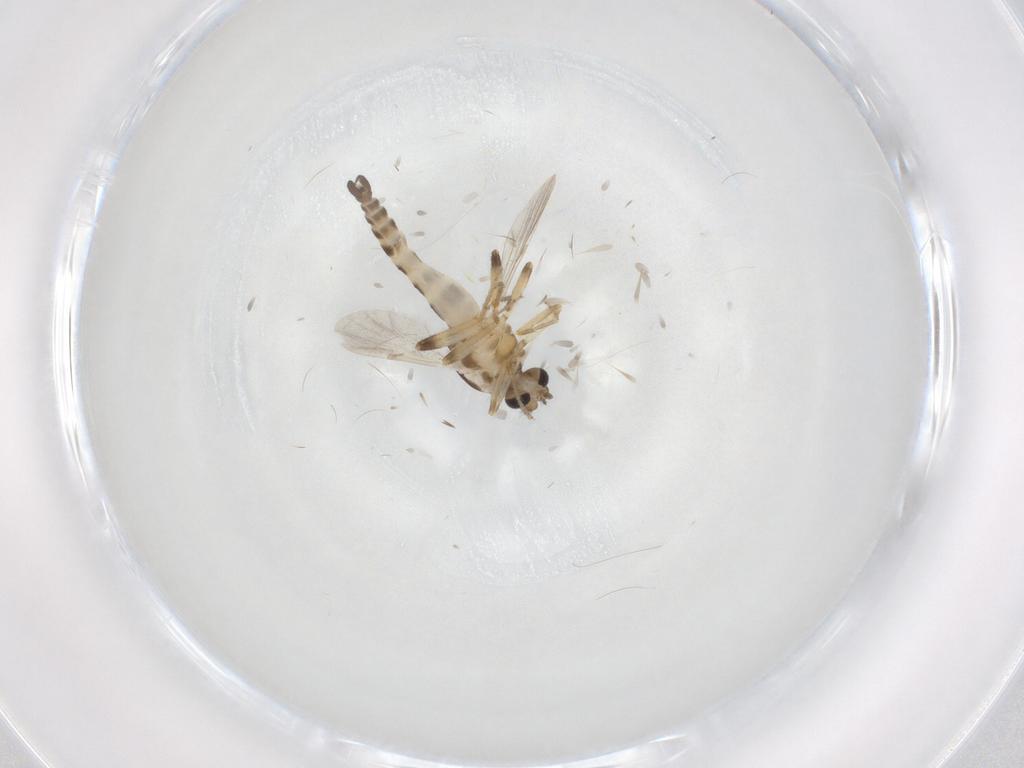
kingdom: Animalia
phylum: Arthropoda
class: Insecta
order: Diptera
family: Ceratopogonidae
